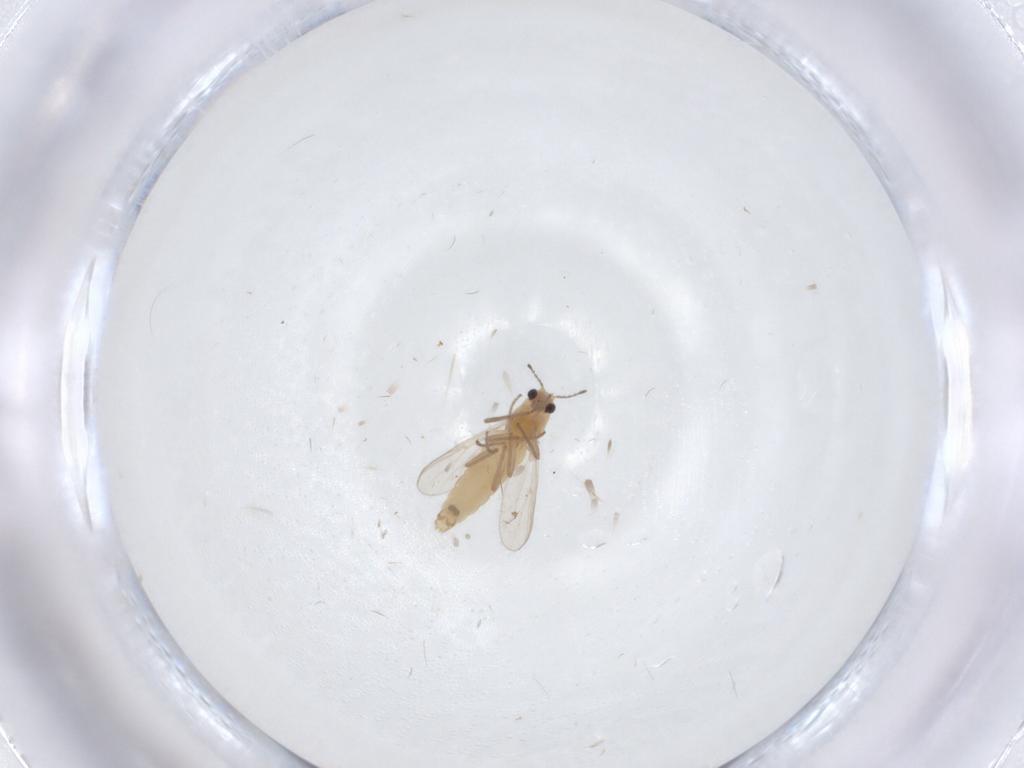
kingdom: Animalia
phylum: Arthropoda
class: Insecta
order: Diptera
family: Chironomidae
